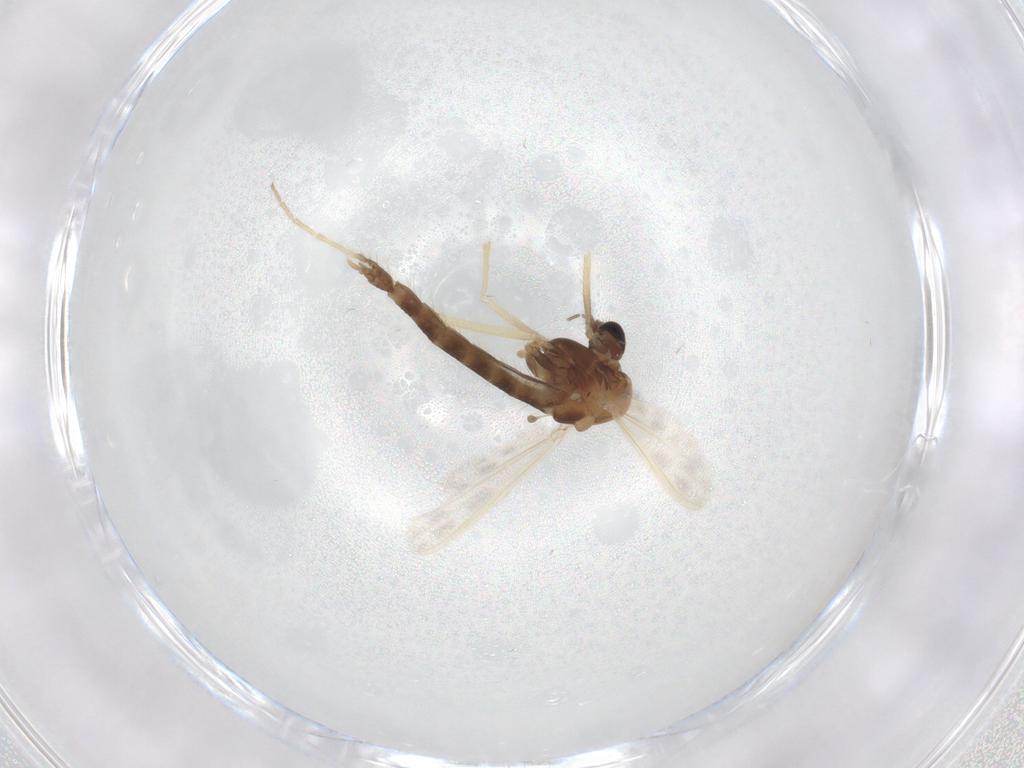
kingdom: Animalia
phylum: Arthropoda
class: Insecta
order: Diptera
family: Chironomidae
